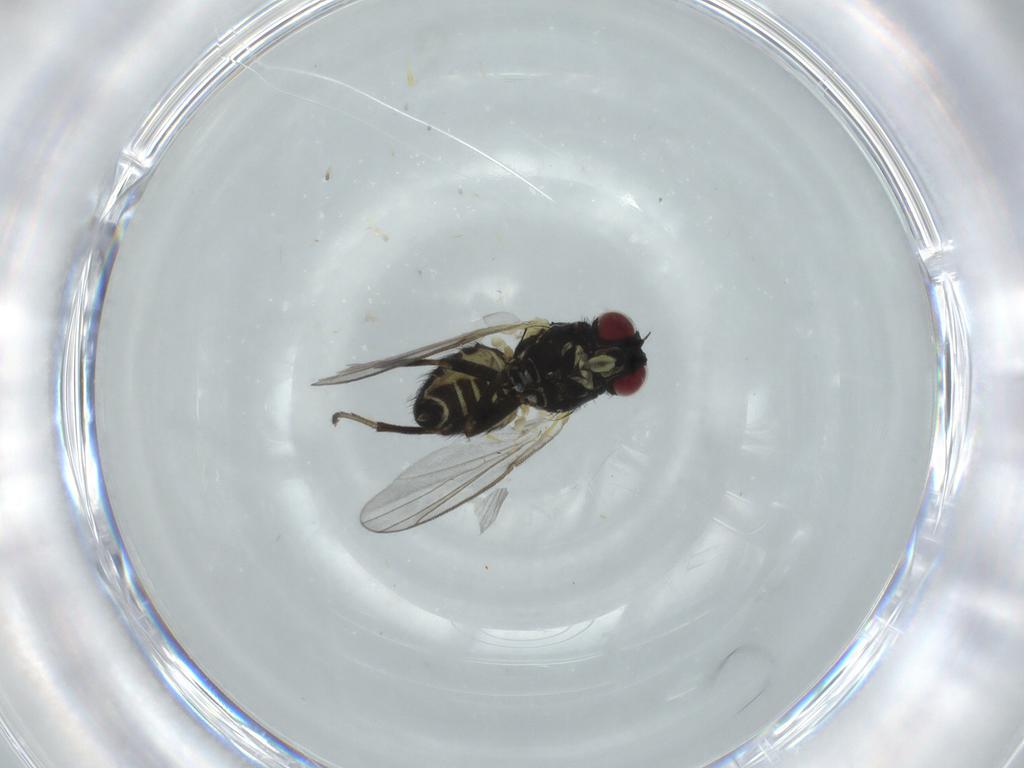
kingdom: Animalia
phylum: Arthropoda
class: Insecta
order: Diptera
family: Agromyzidae
